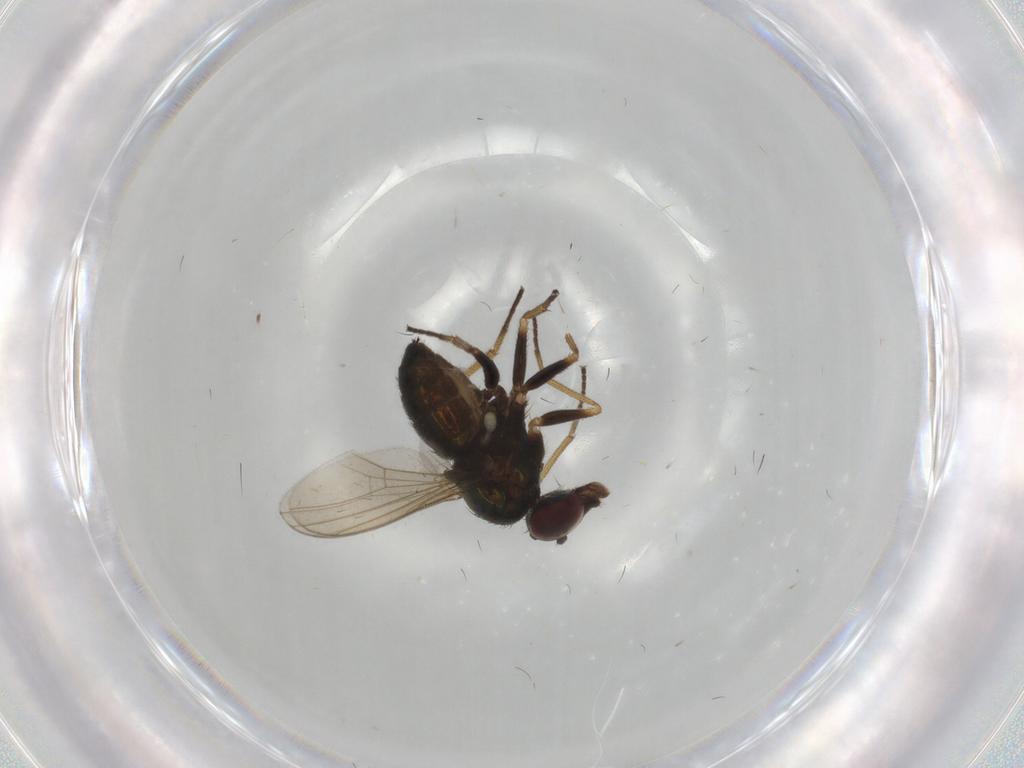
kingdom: Animalia
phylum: Arthropoda
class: Insecta
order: Diptera
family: Dolichopodidae
